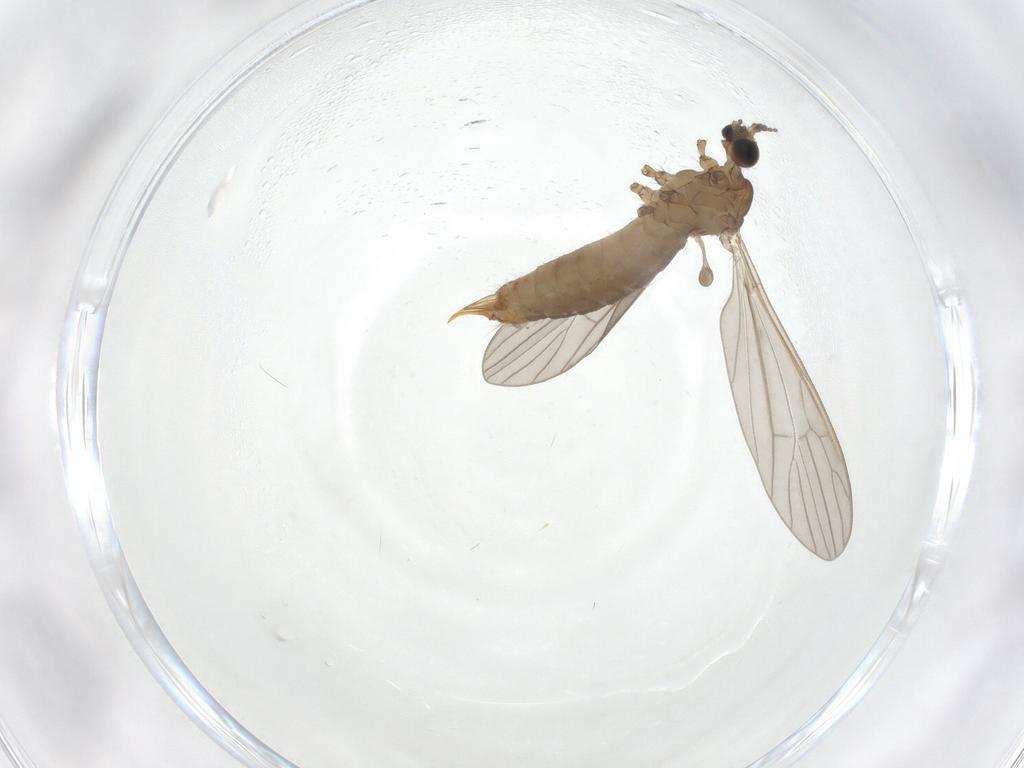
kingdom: Animalia
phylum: Arthropoda
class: Insecta
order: Diptera
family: Limoniidae
